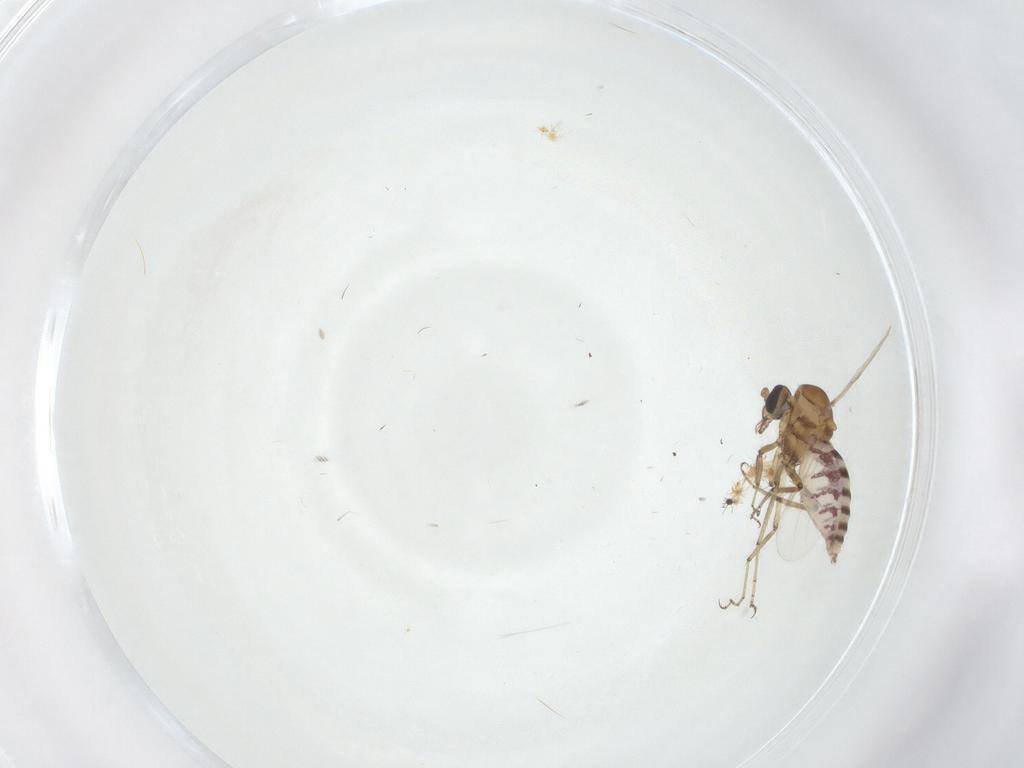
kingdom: Animalia
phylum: Arthropoda
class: Insecta
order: Diptera
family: Ceratopogonidae
